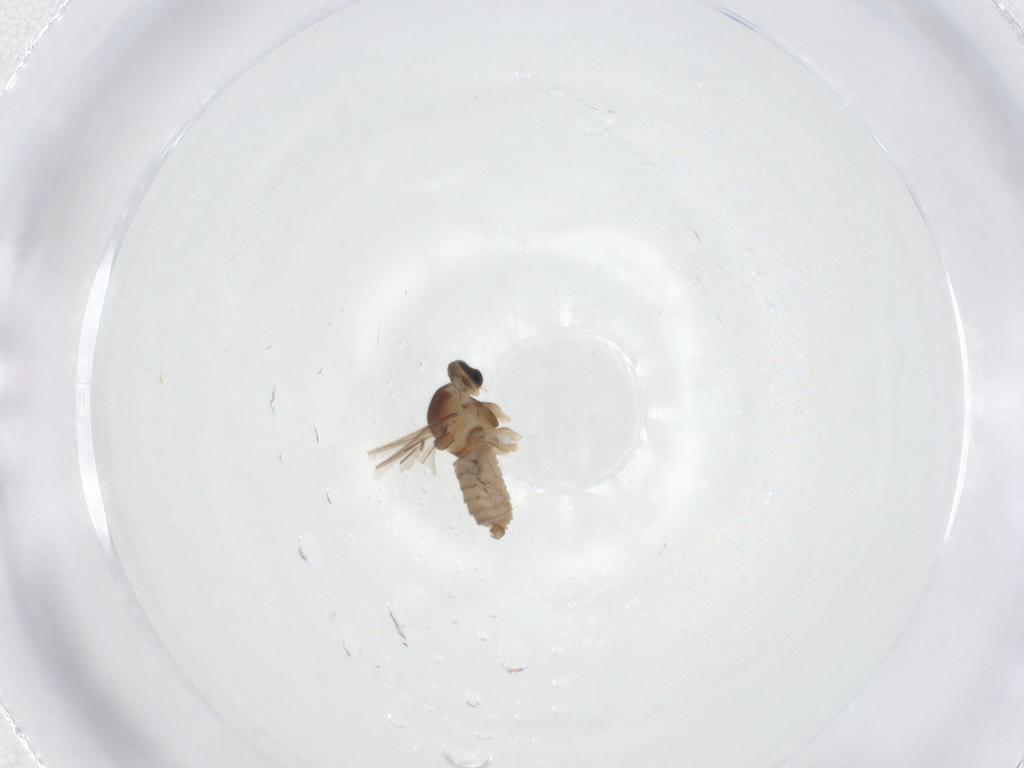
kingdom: Animalia
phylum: Arthropoda
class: Insecta
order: Diptera
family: Cecidomyiidae
